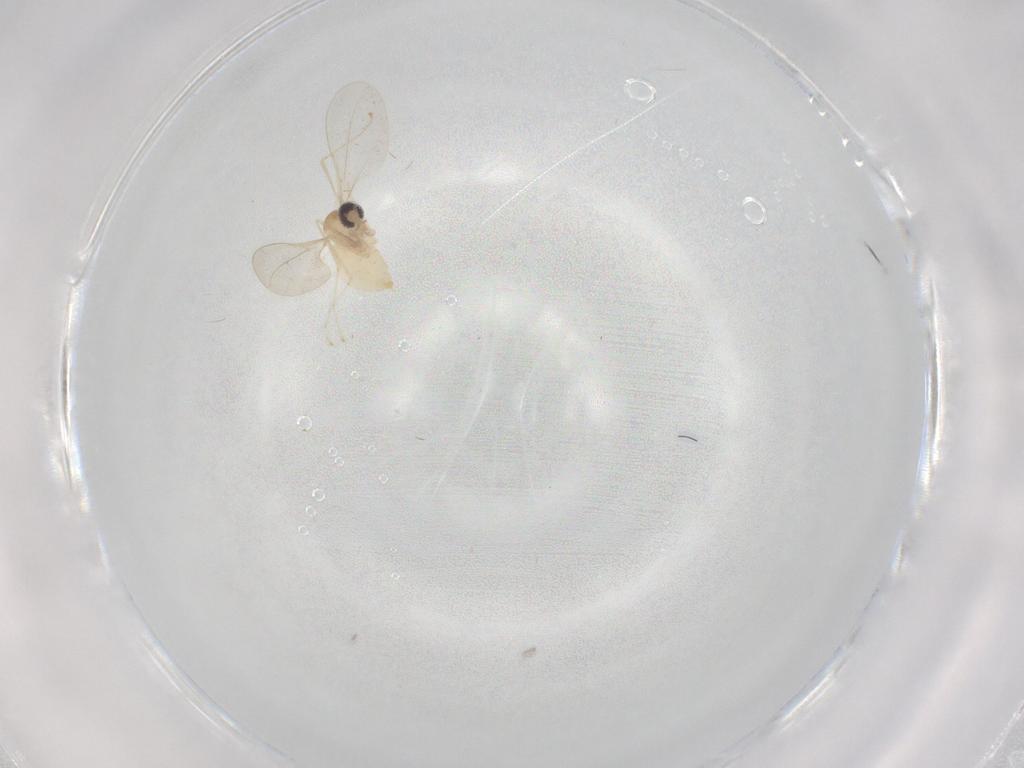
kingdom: Animalia
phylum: Arthropoda
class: Insecta
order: Diptera
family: Cecidomyiidae
